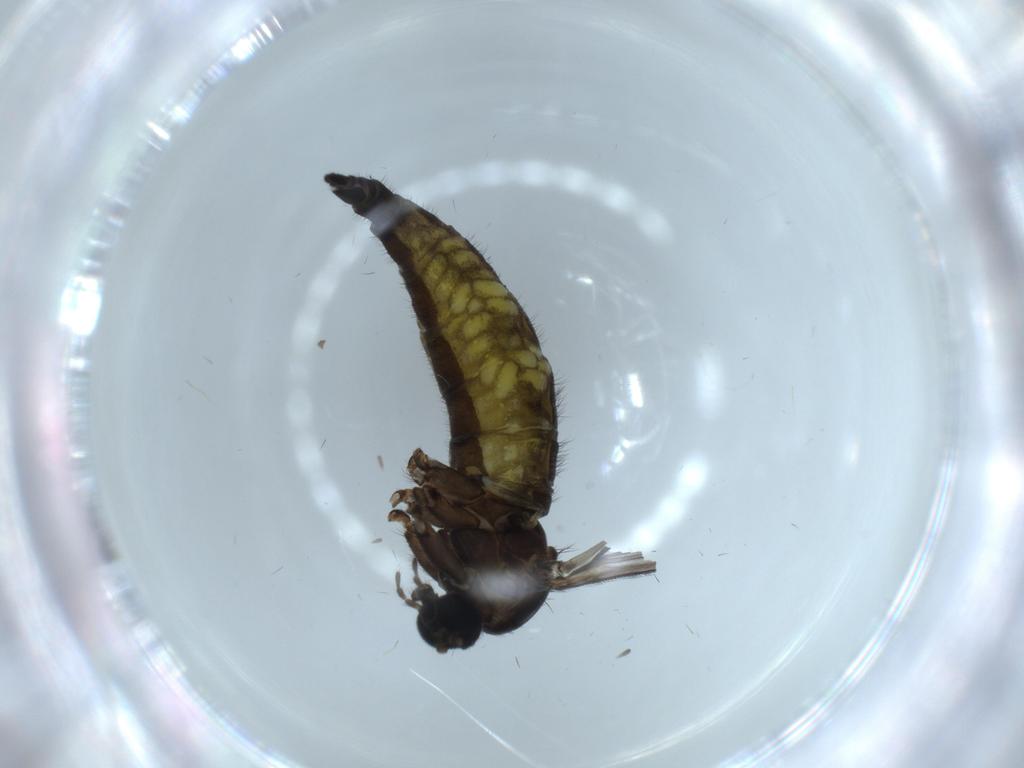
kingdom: Animalia
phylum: Arthropoda
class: Insecta
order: Diptera
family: Sciaridae
